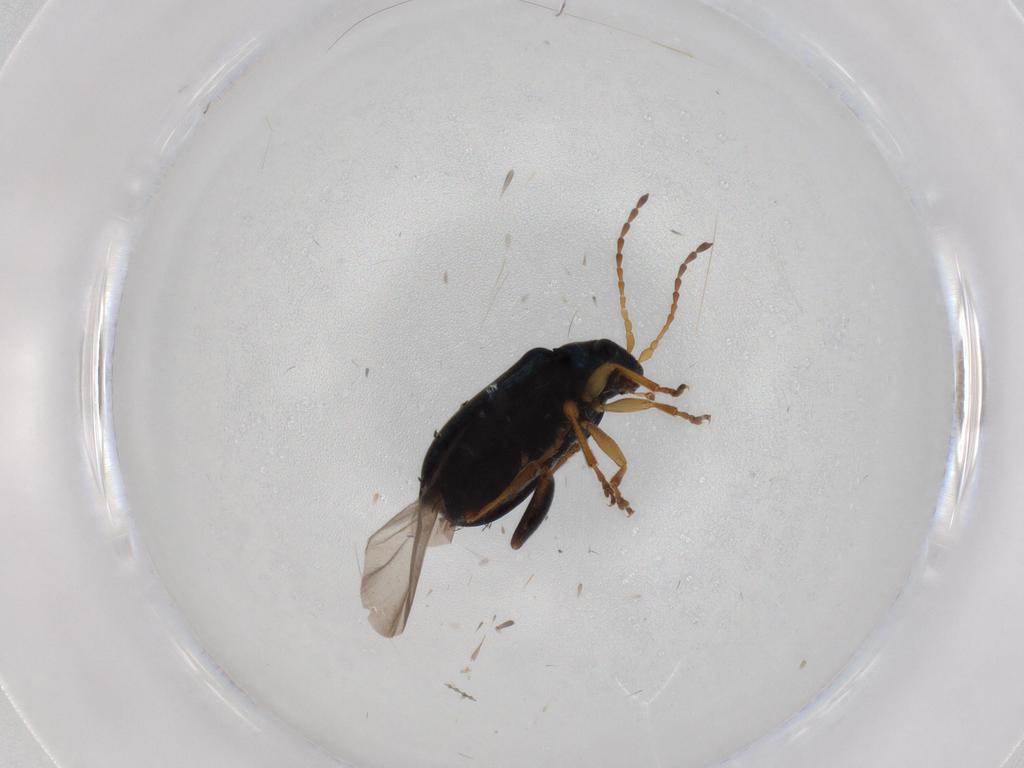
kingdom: Animalia
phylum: Arthropoda
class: Insecta
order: Coleoptera
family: Chrysomelidae
